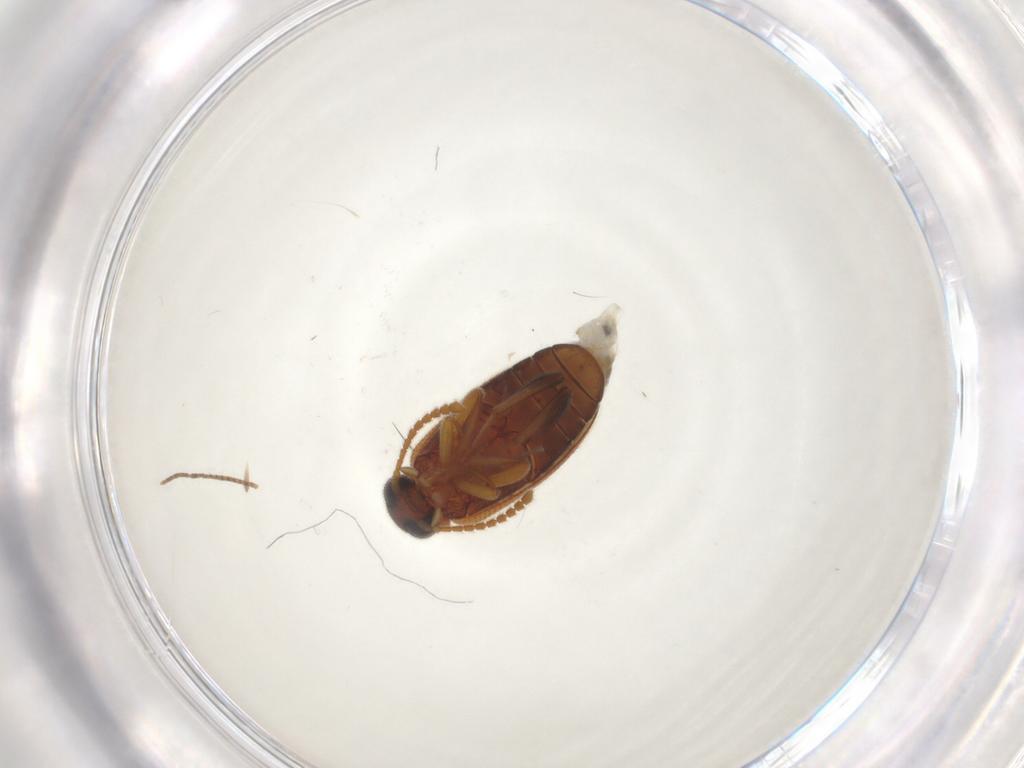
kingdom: Animalia
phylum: Arthropoda
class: Insecta
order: Coleoptera
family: Aderidae
